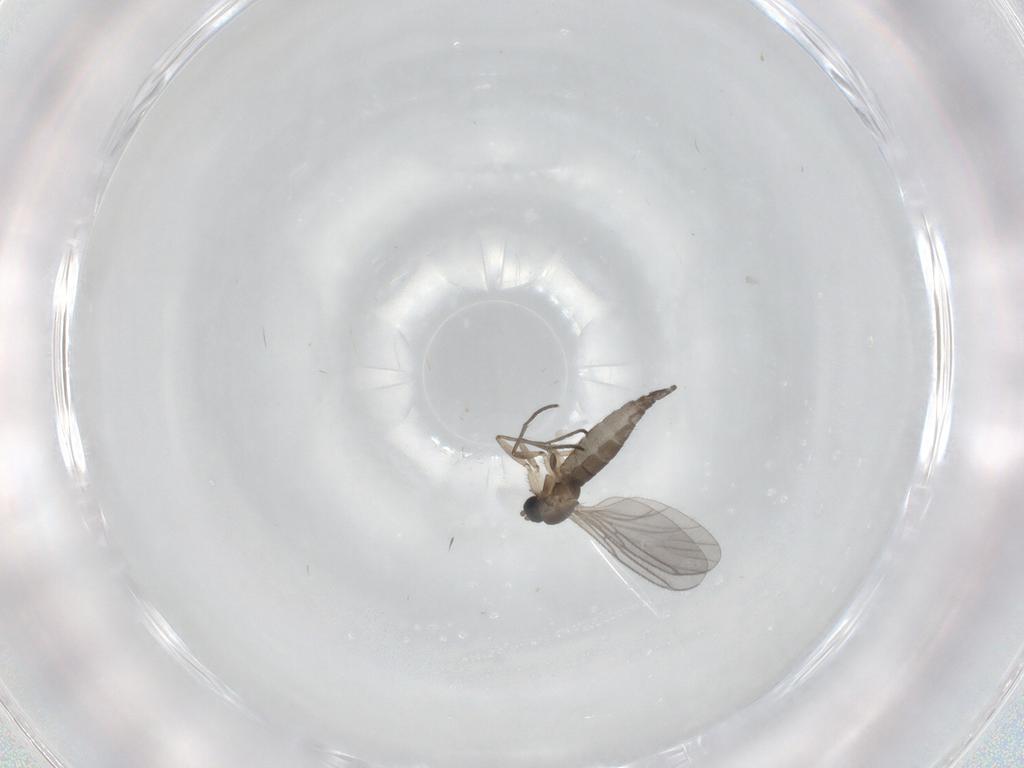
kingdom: Animalia
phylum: Arthropoda
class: Insecta
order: Diptera
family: Sciaridae
